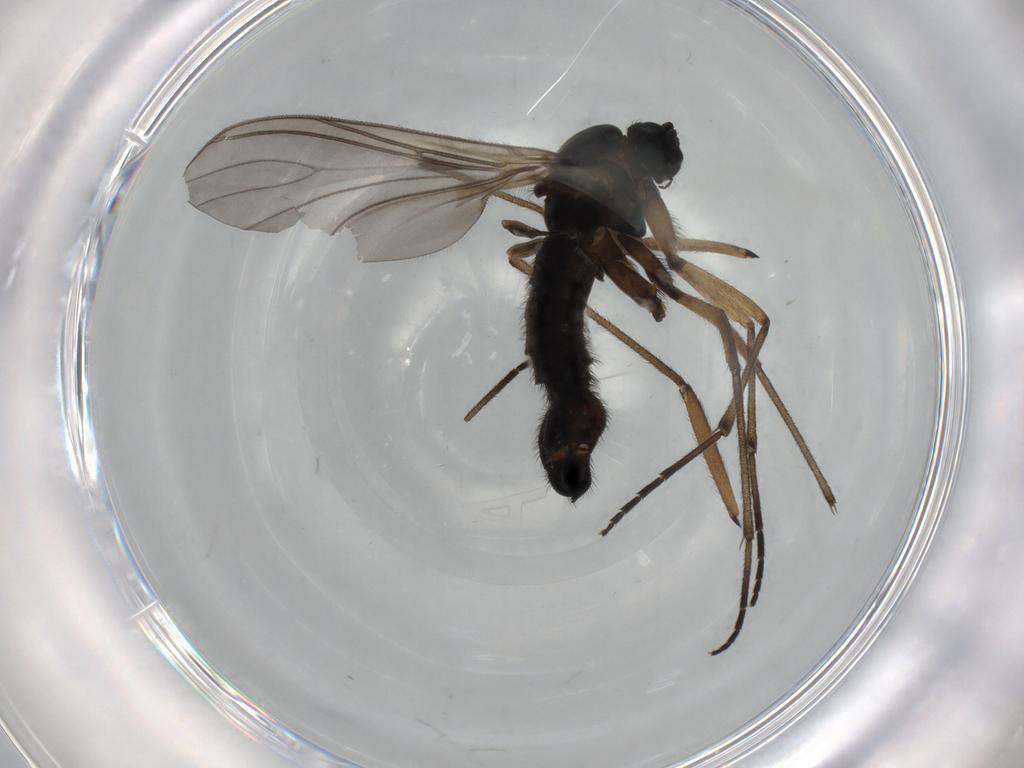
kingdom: Animalia
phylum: Arthropoda
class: Insecta
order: Diptera
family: Sciaridae
